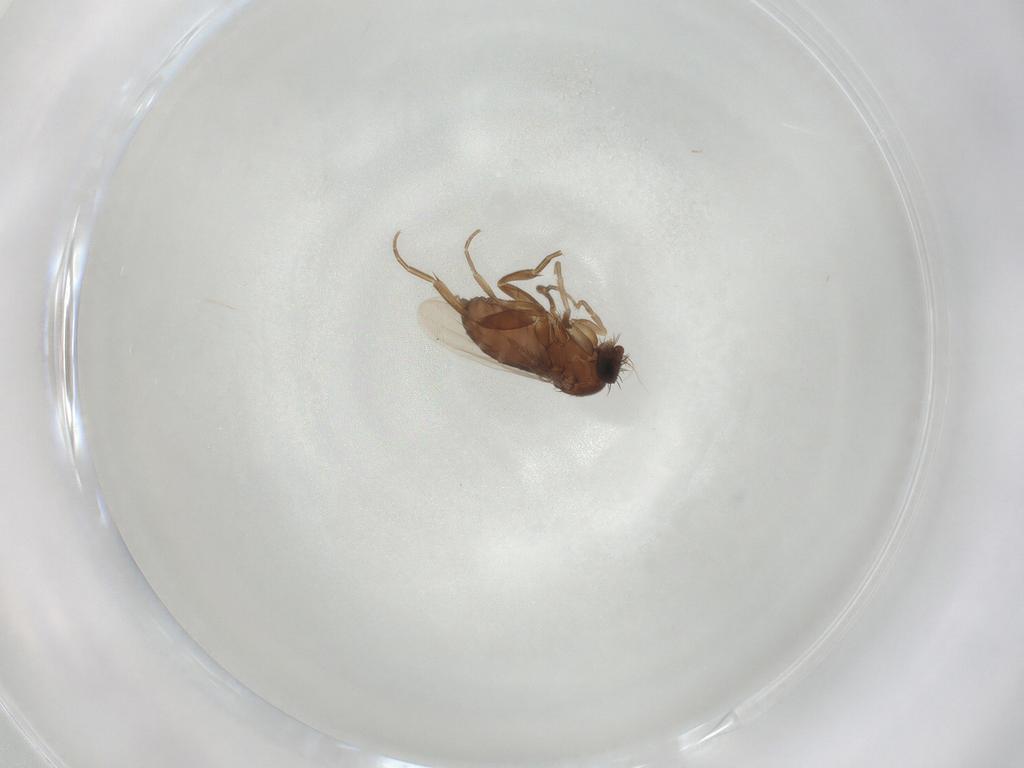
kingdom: Animalia
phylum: Arthropoda
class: Insecta
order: Diptera
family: Phoridae
